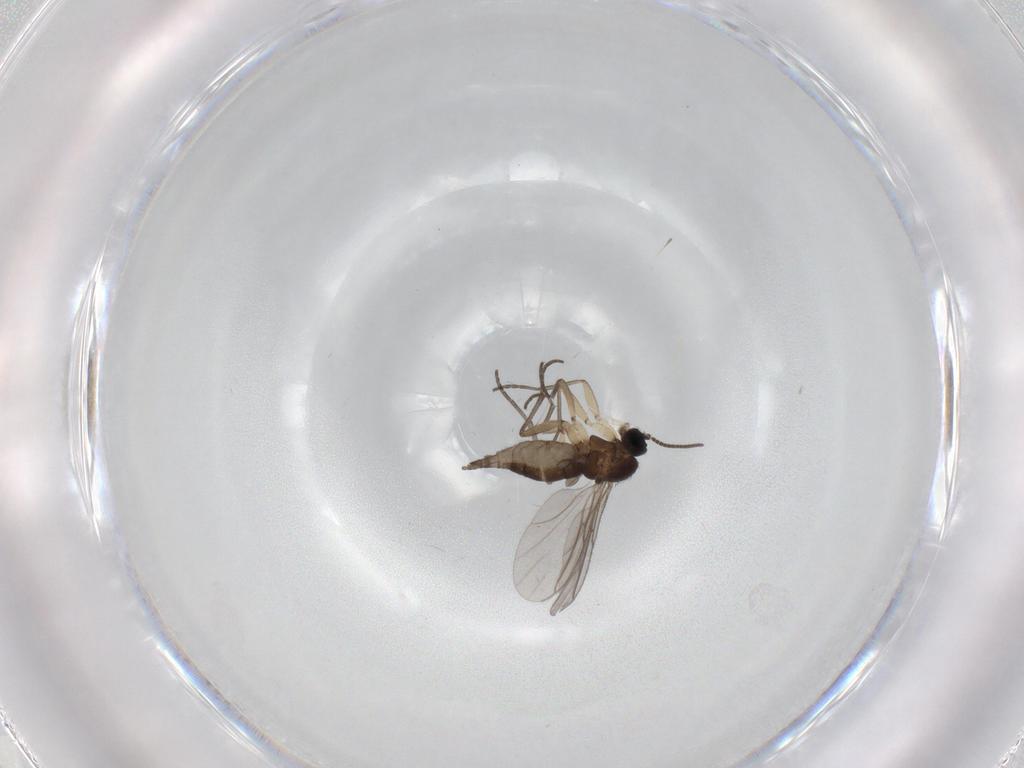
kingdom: Animalia
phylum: Arthropoda
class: Insecta
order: Diptera
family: Sciaridae
